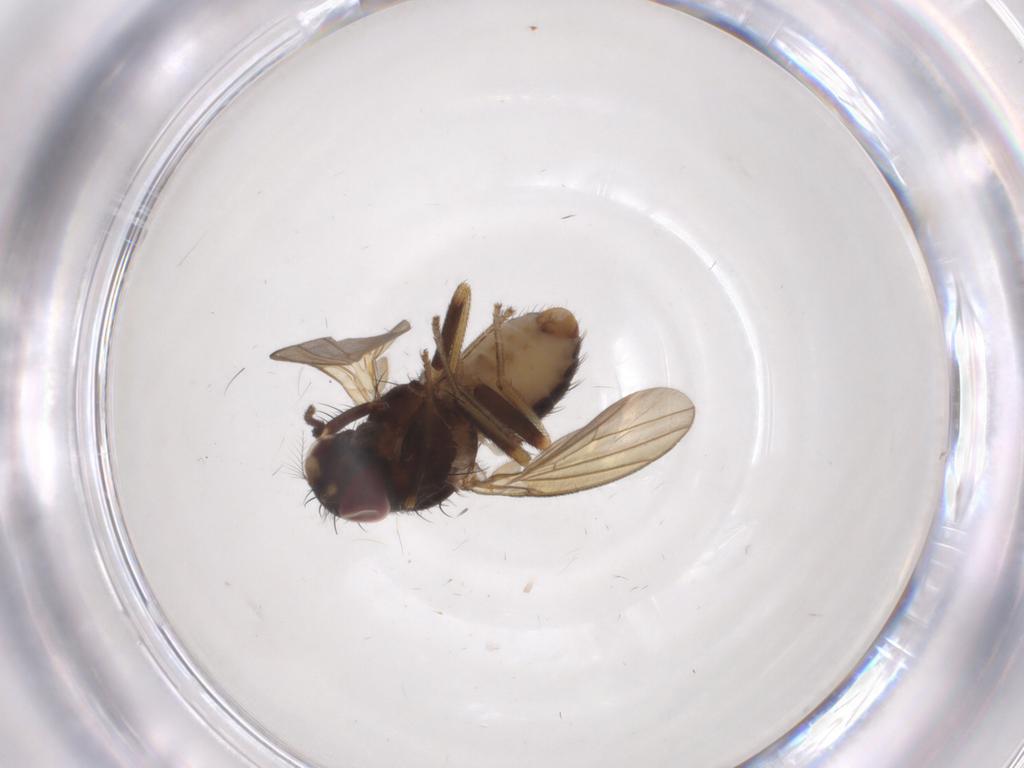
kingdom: Animalia
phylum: Arthropoda
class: Insecta
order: Diptera
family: Lauxaniidae
